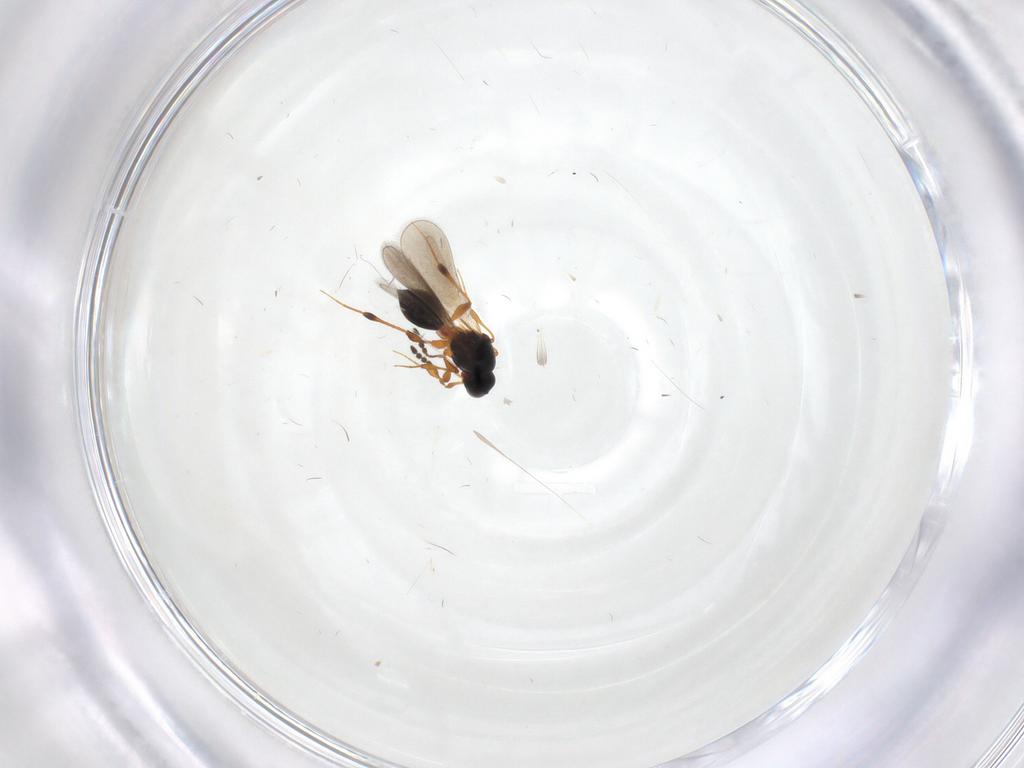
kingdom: Animalia
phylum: Arthropoda
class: Insecta
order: Hymenoptera
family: Platygastridae
